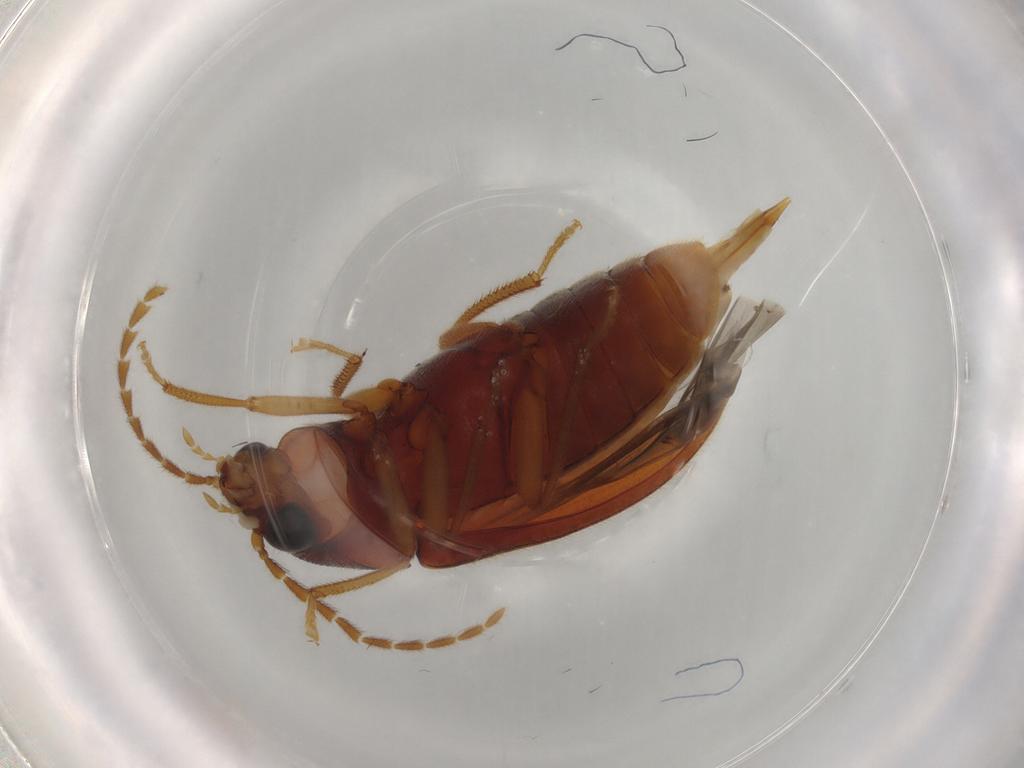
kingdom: Animalia
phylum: Arthropoda
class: Insecta
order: Coleoptera
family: Ptilodactylidae
